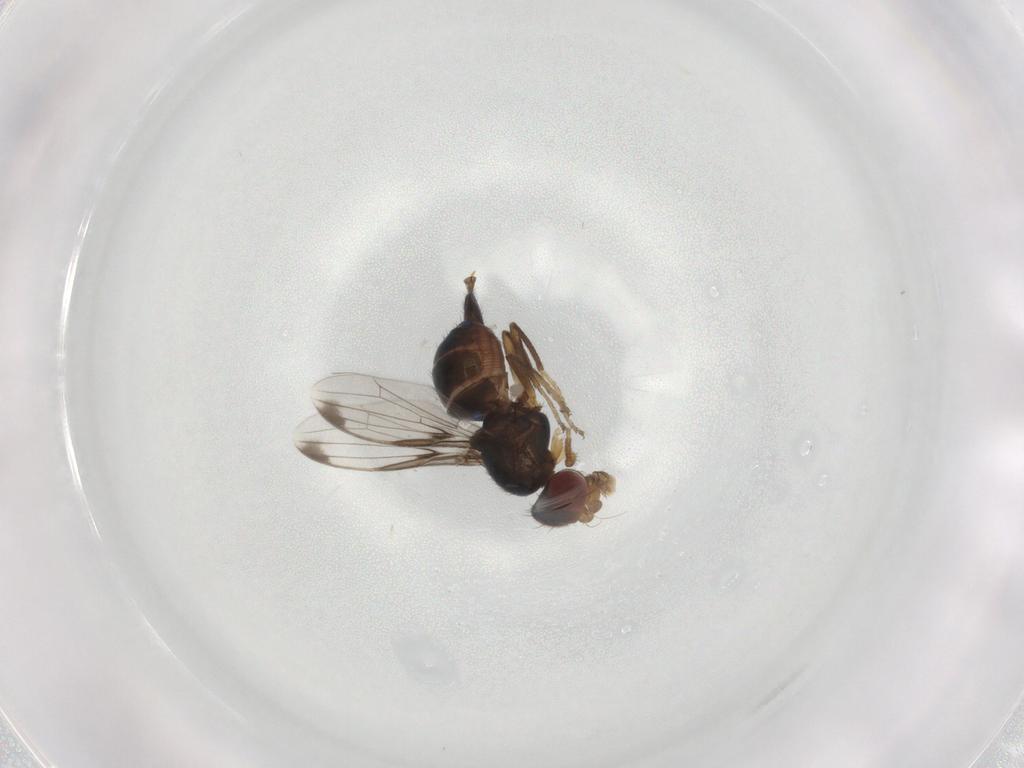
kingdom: Animalia
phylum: Arthropoda
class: Insecta
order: Diptera
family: Ulidiidae
